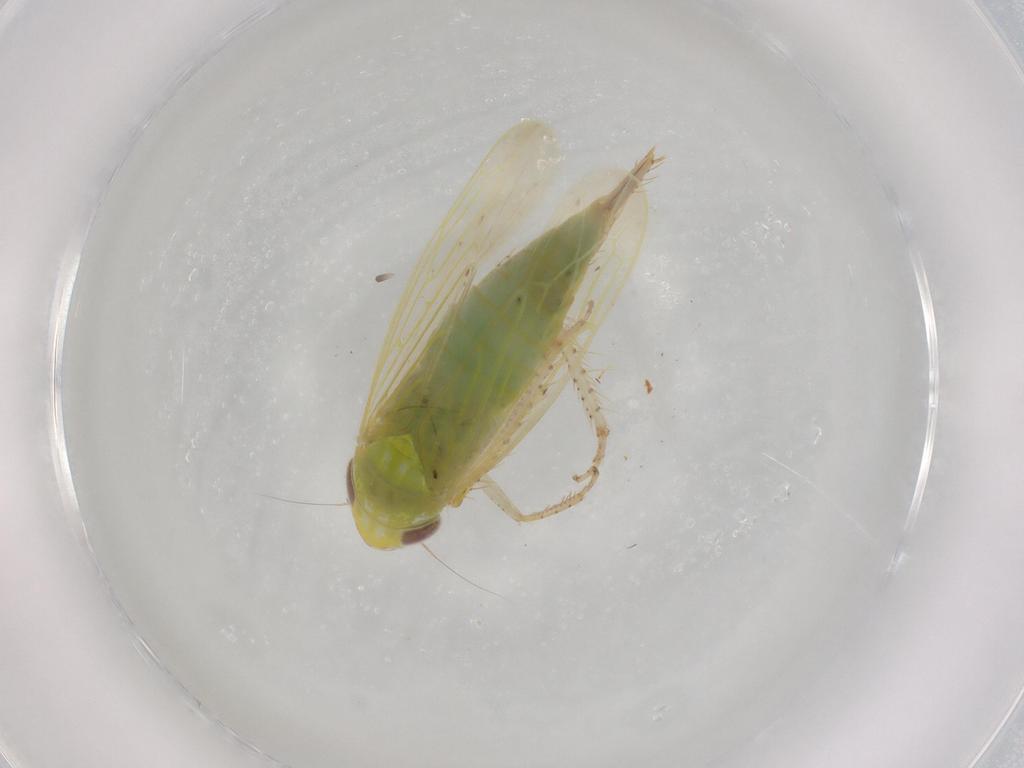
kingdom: Animalia
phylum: Arthropoda
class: Insecta
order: Hemiptera
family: Cicadellidae
